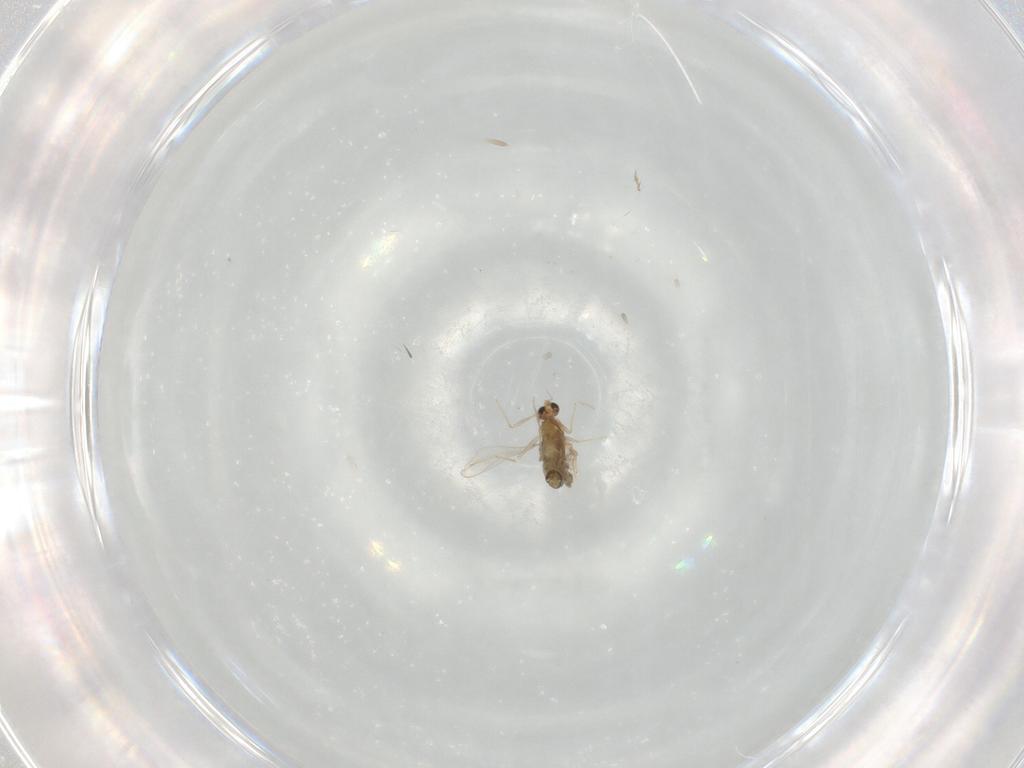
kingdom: Animalia
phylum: Arthropoda
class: Insecta
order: Diptera
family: Chironomidae
